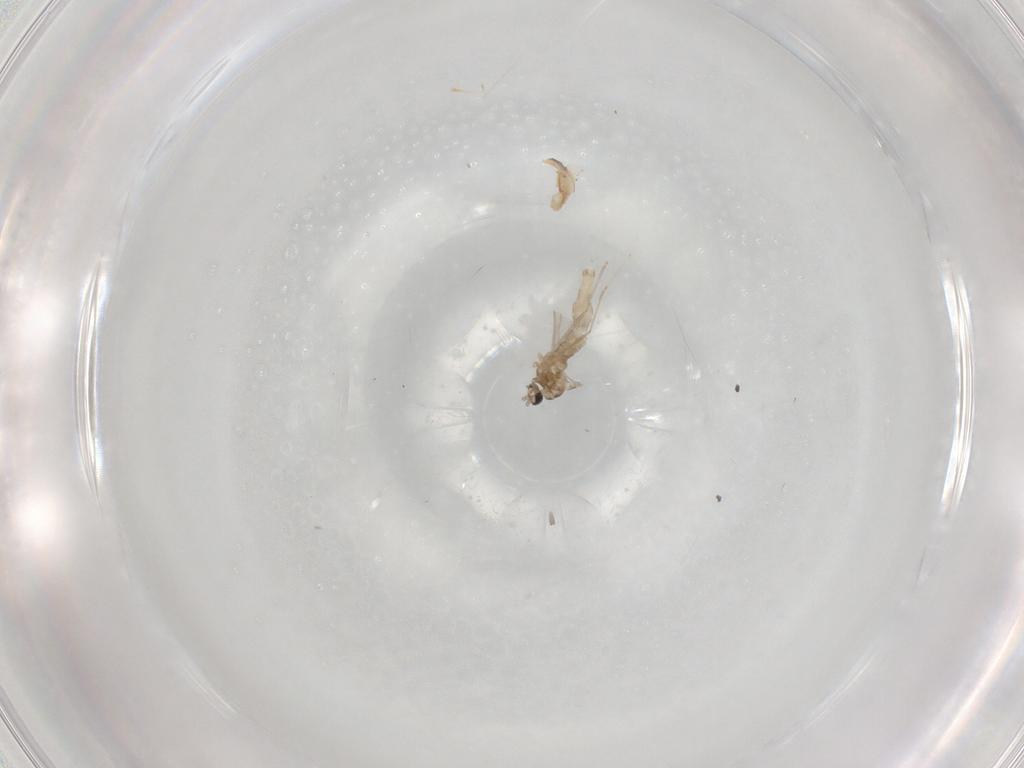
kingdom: Animalia
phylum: Arthropoda
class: Insecta
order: Diptera
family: Cecidomyiidae
